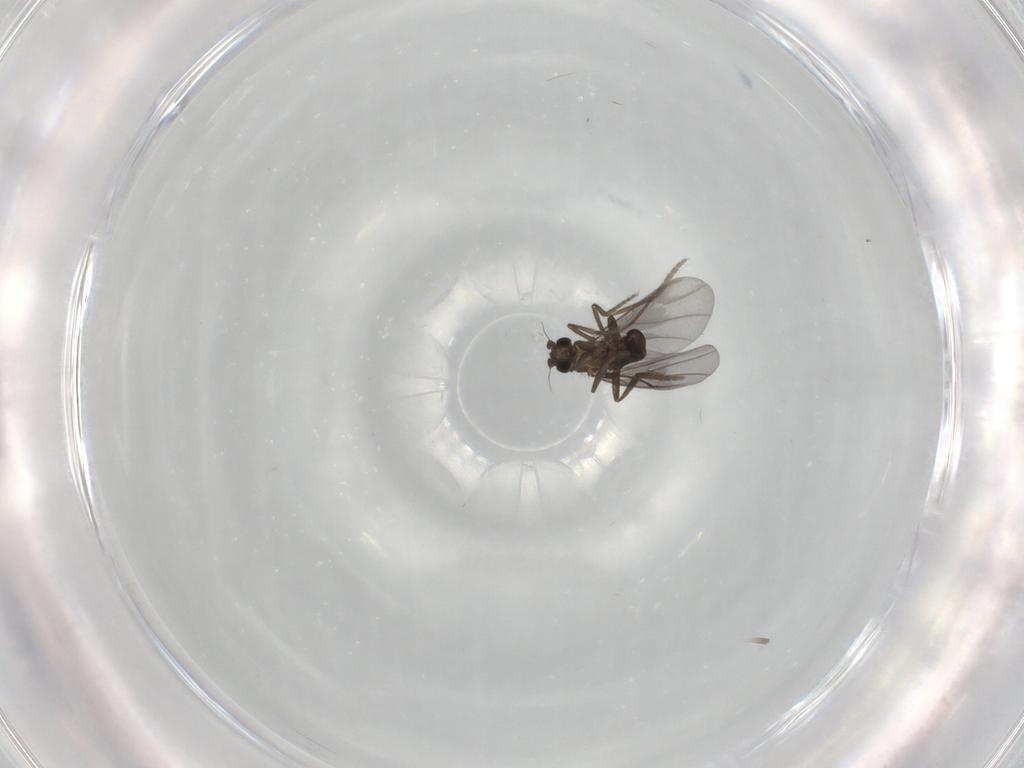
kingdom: Animalia
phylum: Arthropoda
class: Insecta
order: Diptera
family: Phoridae
